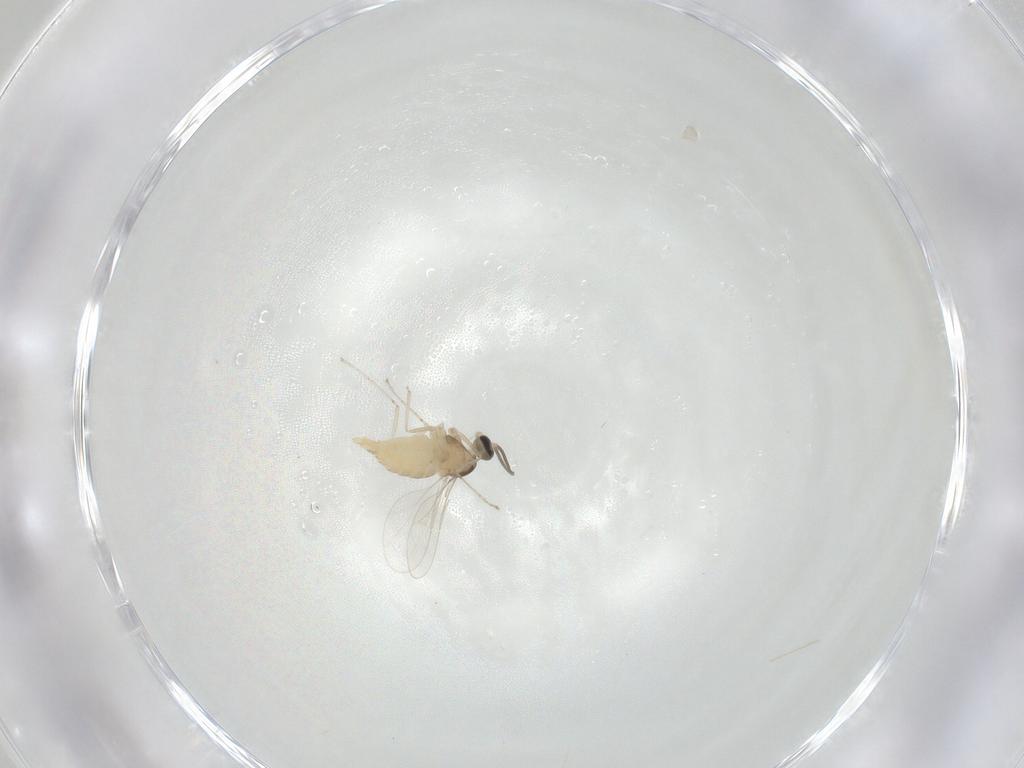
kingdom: Animalia
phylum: Arthropoda
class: Insecta
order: Diptera
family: Cecidomyiidae
